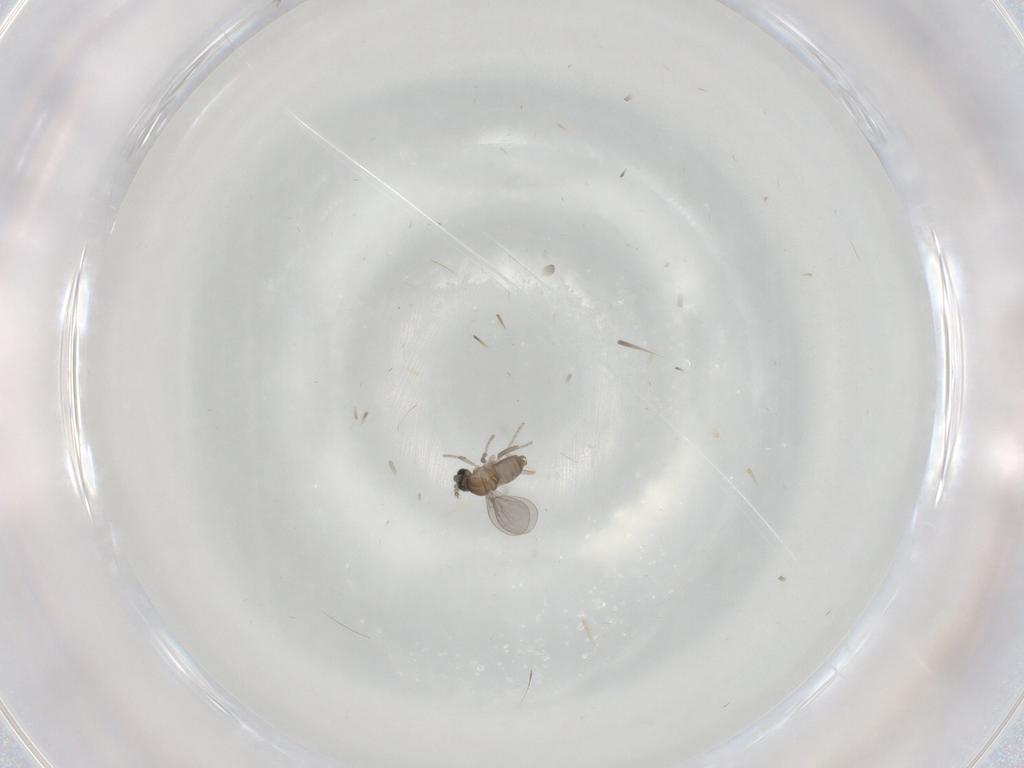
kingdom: Animalia
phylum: Arthropoda
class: Insecta
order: Diptera
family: Cecidomyiidae
